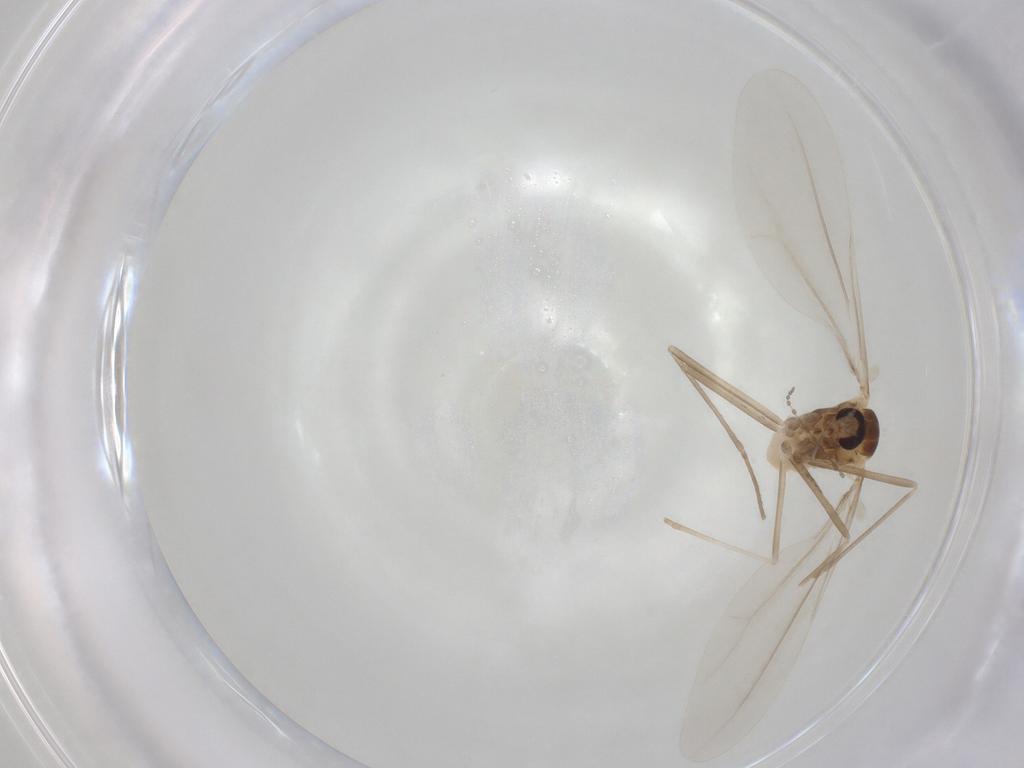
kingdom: Animalia
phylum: Arthropoda
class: Insecta
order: Diptera
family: Cecidomyiidae
